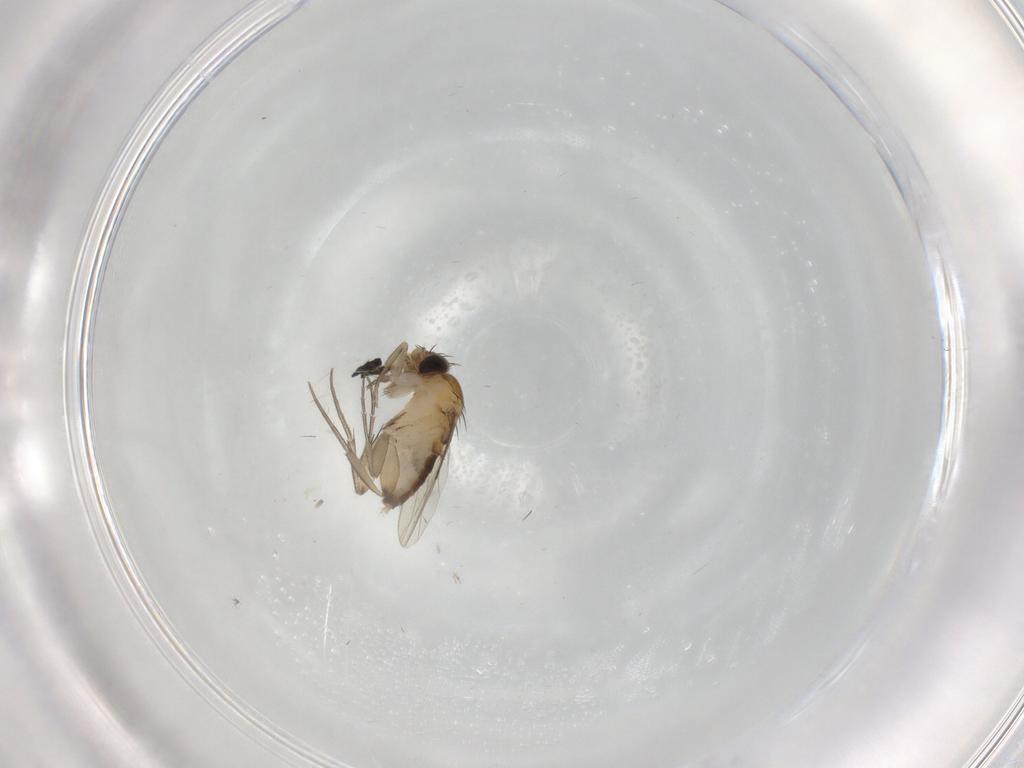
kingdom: Animalia
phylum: Arthropoda
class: Insecta
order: Diptera
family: Phoridae
